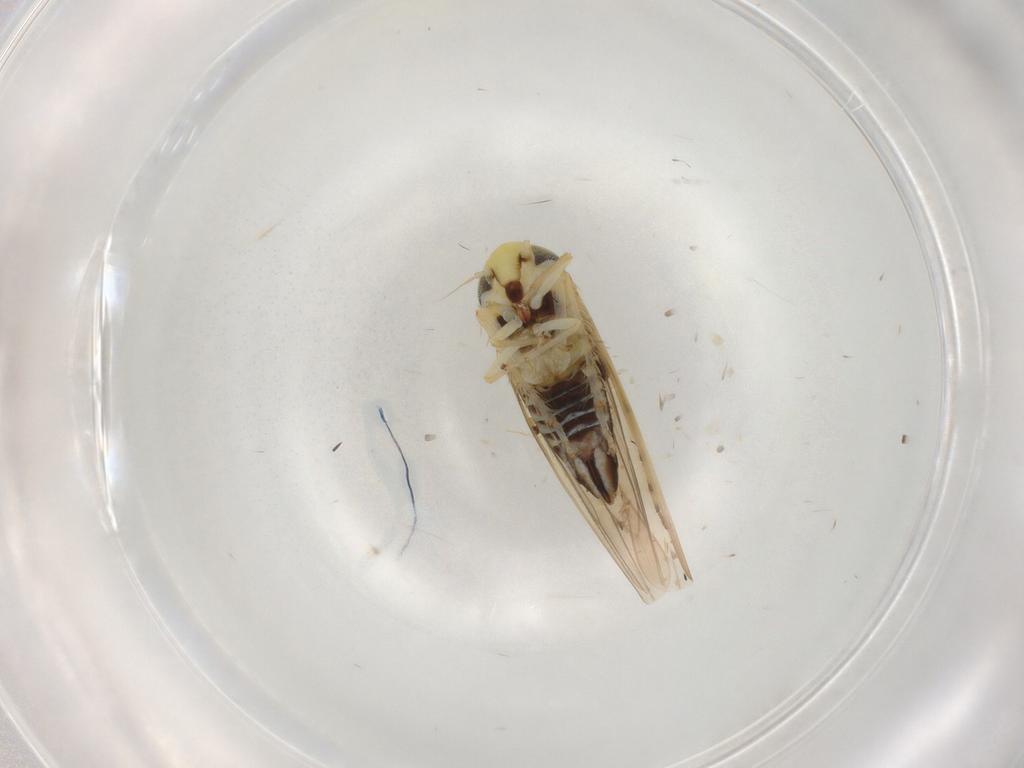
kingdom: Animalia
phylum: Arthropoda
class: Insecta
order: Hemiptera
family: Cicadellidae
